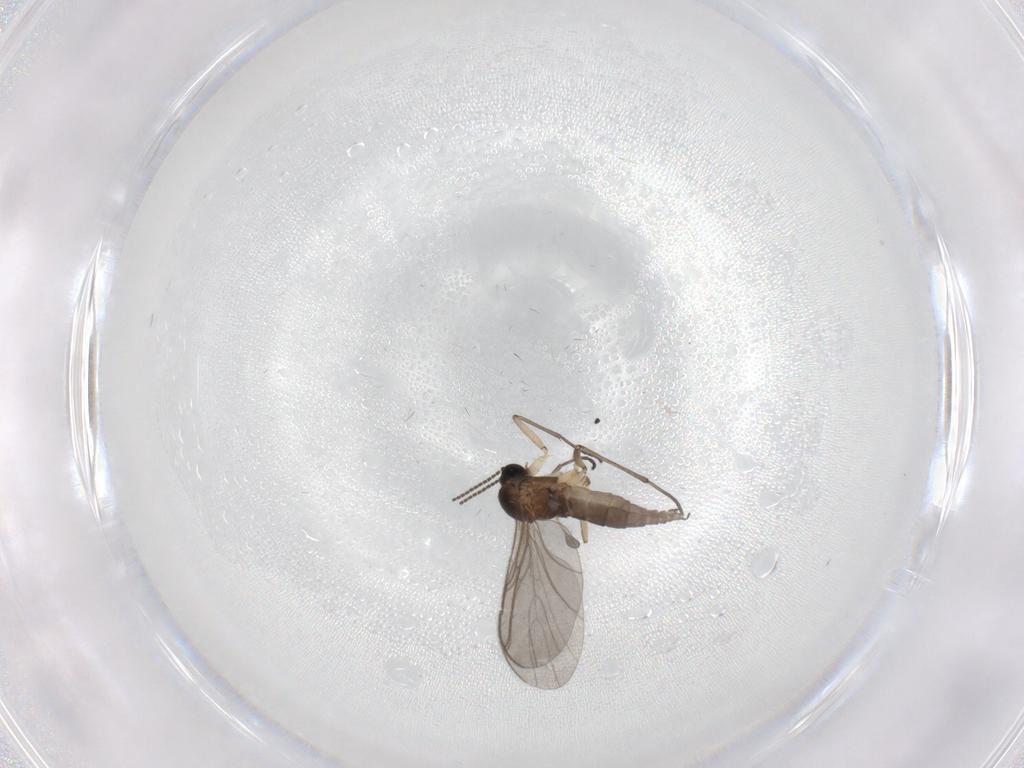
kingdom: Animalia
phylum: Arthropoda
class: Insecta
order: Diptera
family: Sciaridae
